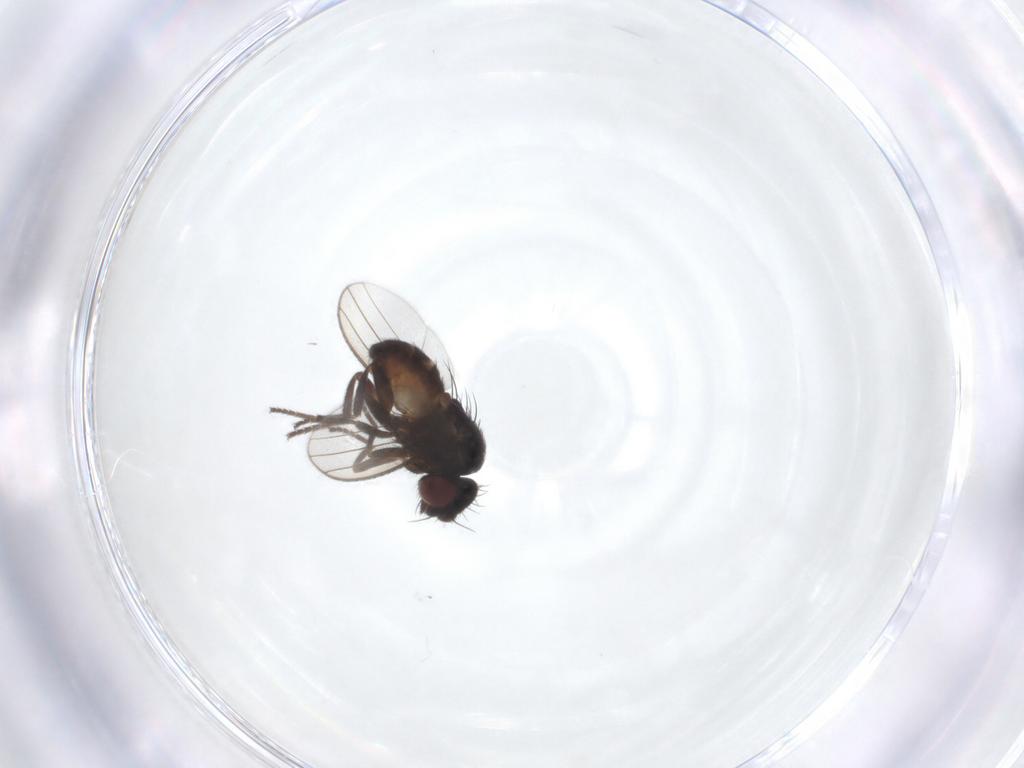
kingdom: Animalia
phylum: Arthropoda
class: Insecta
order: Diptera
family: Milichiidae
